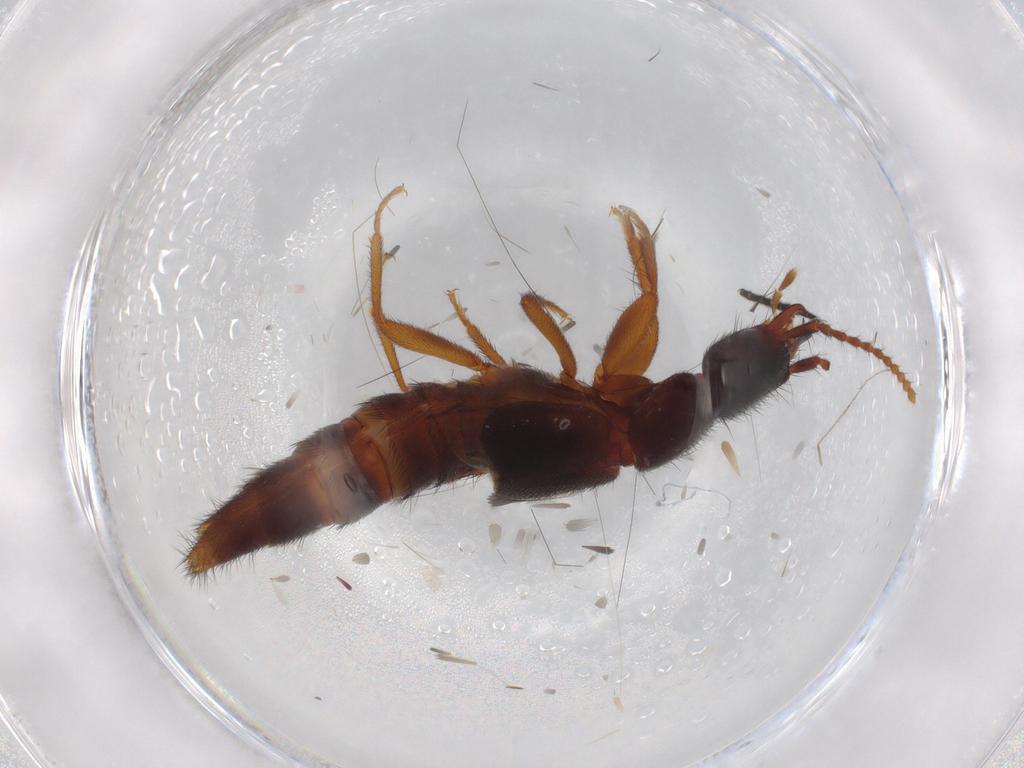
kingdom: Animalia
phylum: Arthropoda
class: Insecta
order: Coleoptera
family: Staphylinidae
